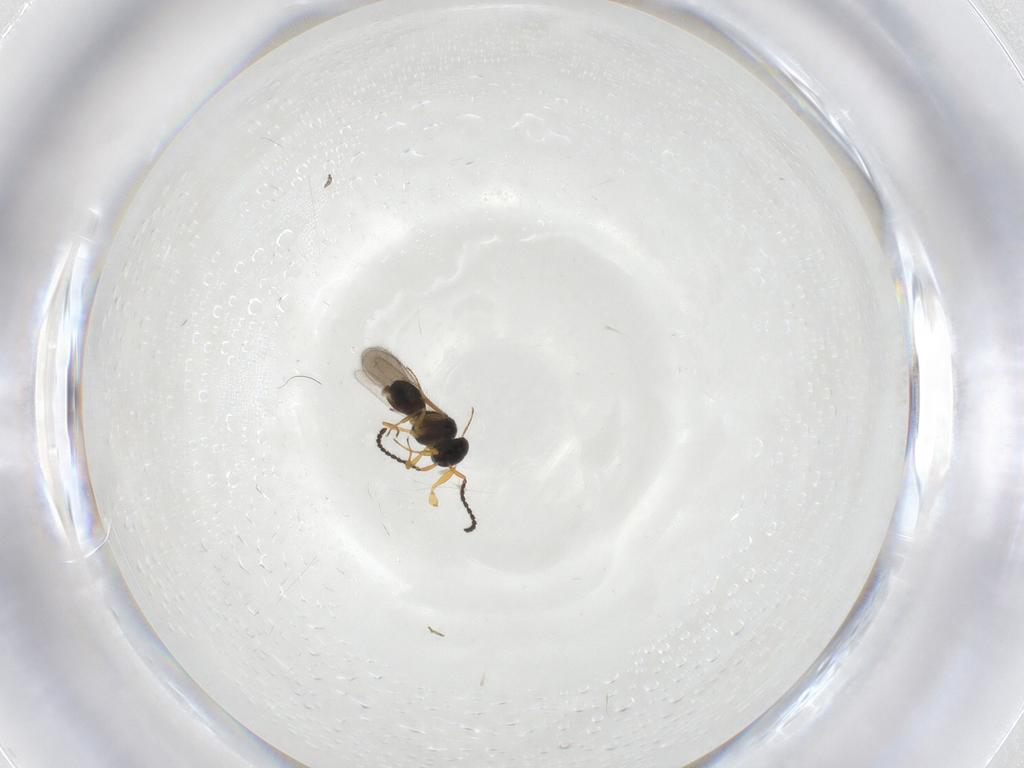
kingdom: Animalia
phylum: Arthropoda
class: Insecta
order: Hymenoptera
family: Scelionidae
